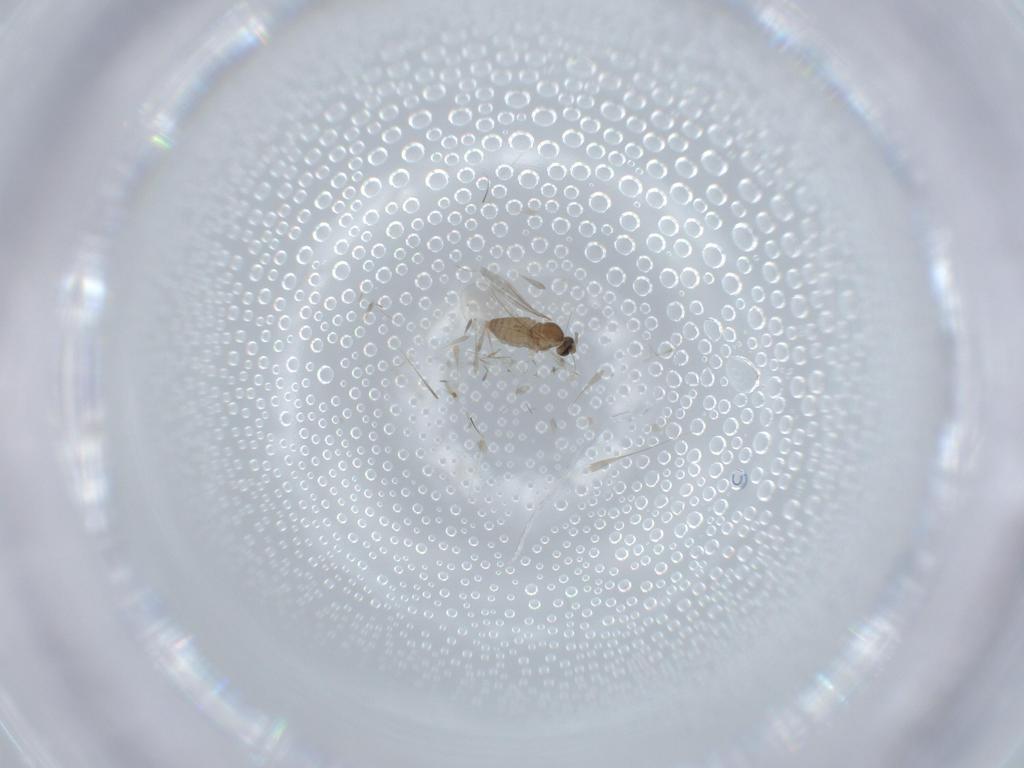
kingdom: Animalia
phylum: Arthropoda
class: Insecta
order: Diptera
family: Cecidomyiidae
